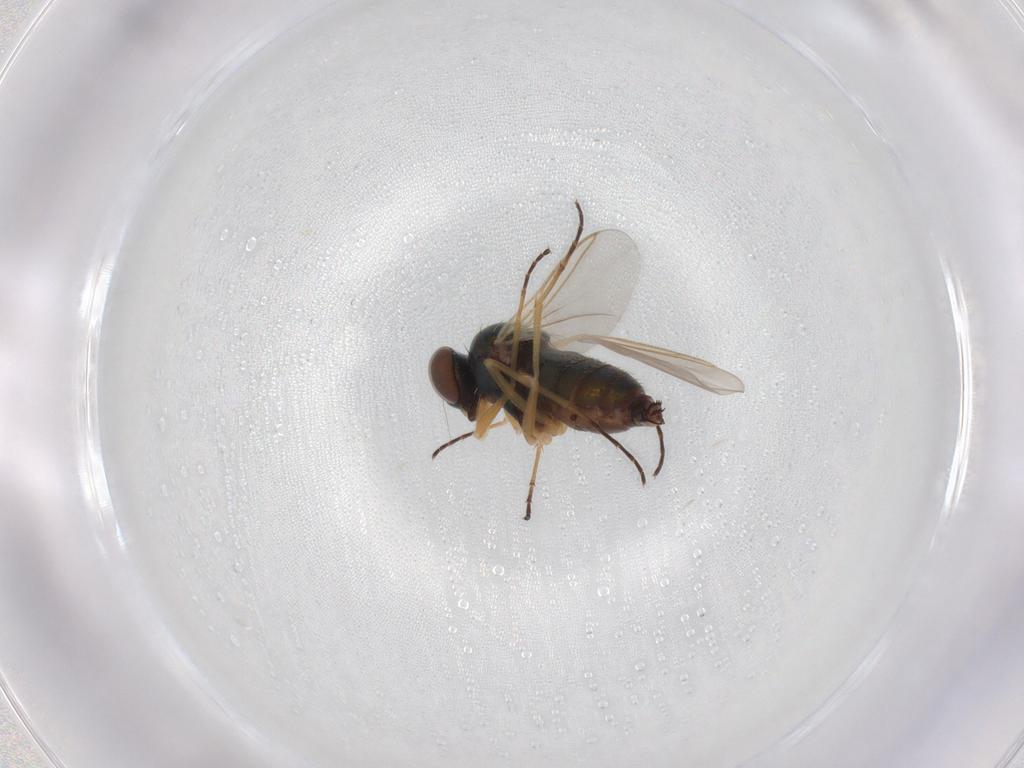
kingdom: Animalia
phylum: Arthropoda
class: Insecta
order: Diptera
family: Dolichopodidae
